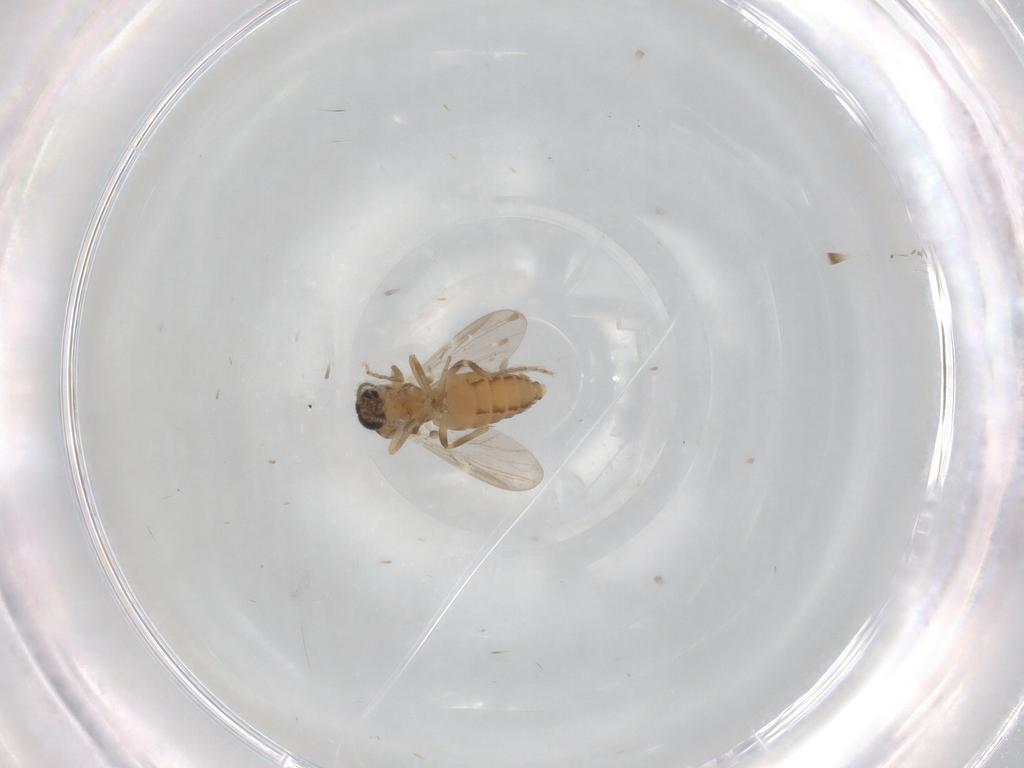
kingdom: Animalia
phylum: Arthropoda
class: Insecta
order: Diptera
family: Ceratopogonidae
